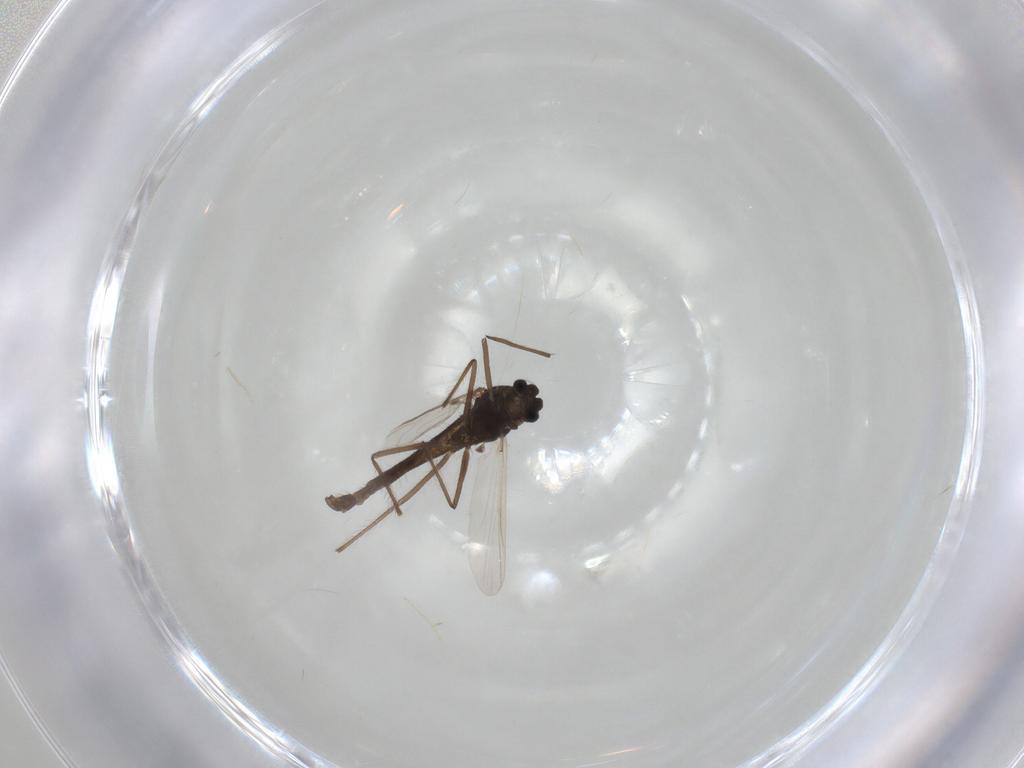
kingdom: Animalia
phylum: Arthropoda
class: Insecta
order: Diptera
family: Chironomidae
